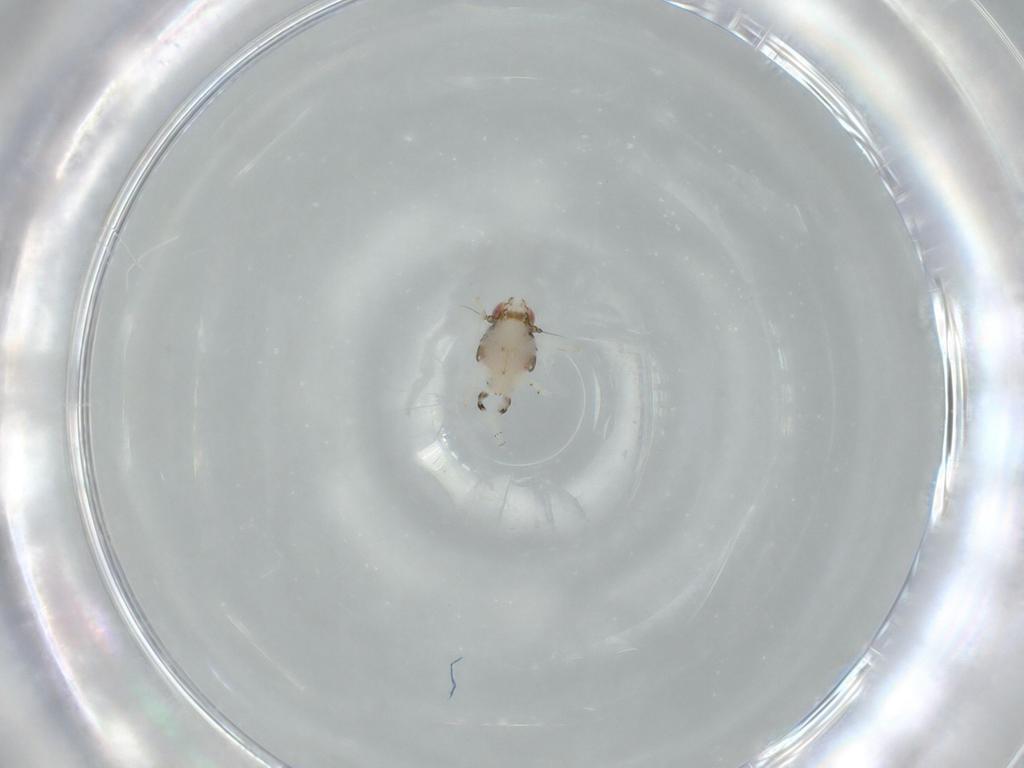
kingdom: Animalia
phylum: Arthropoda
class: Insecta
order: Hemiptera
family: Nogodinidae
